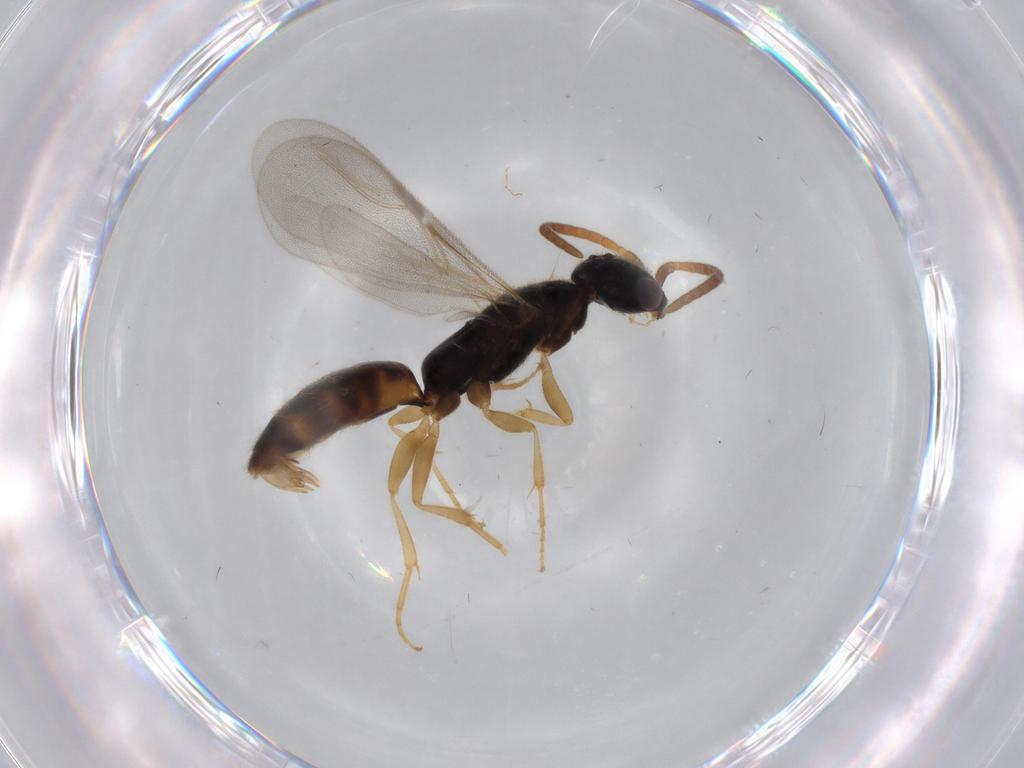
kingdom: Animalia
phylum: Arthropoda
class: Insecta
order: Hymenoptera
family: Bethylidae
